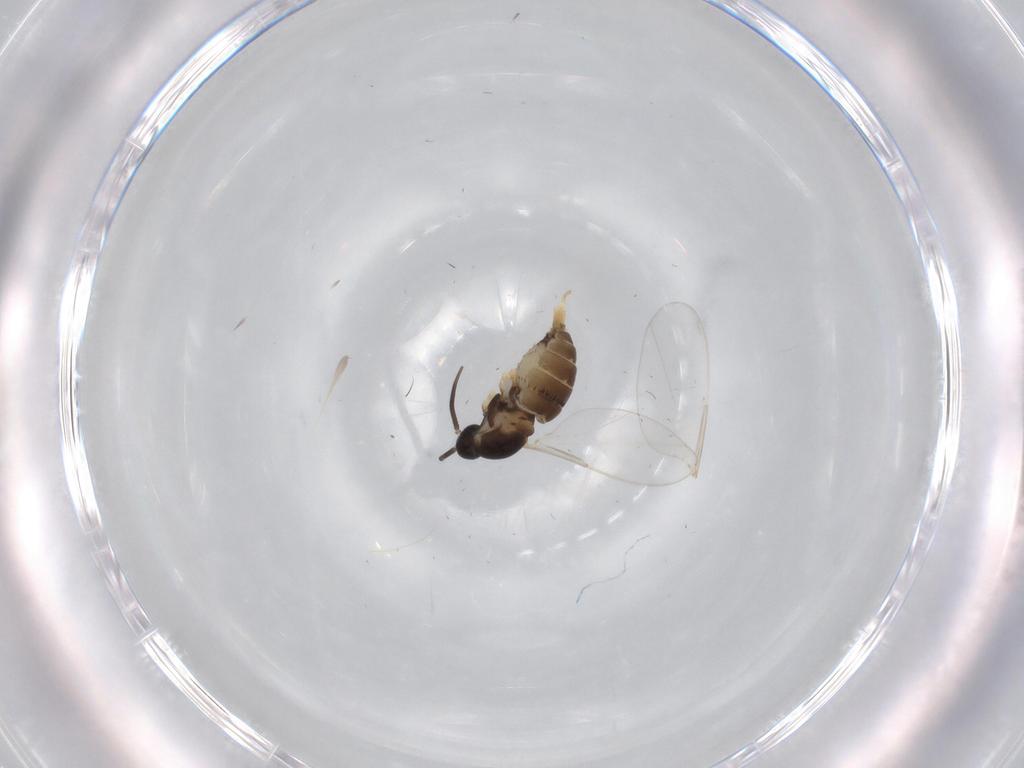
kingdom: Animalia
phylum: Arthropoda
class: Insecta
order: Diptera
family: Cecidomyiidae
